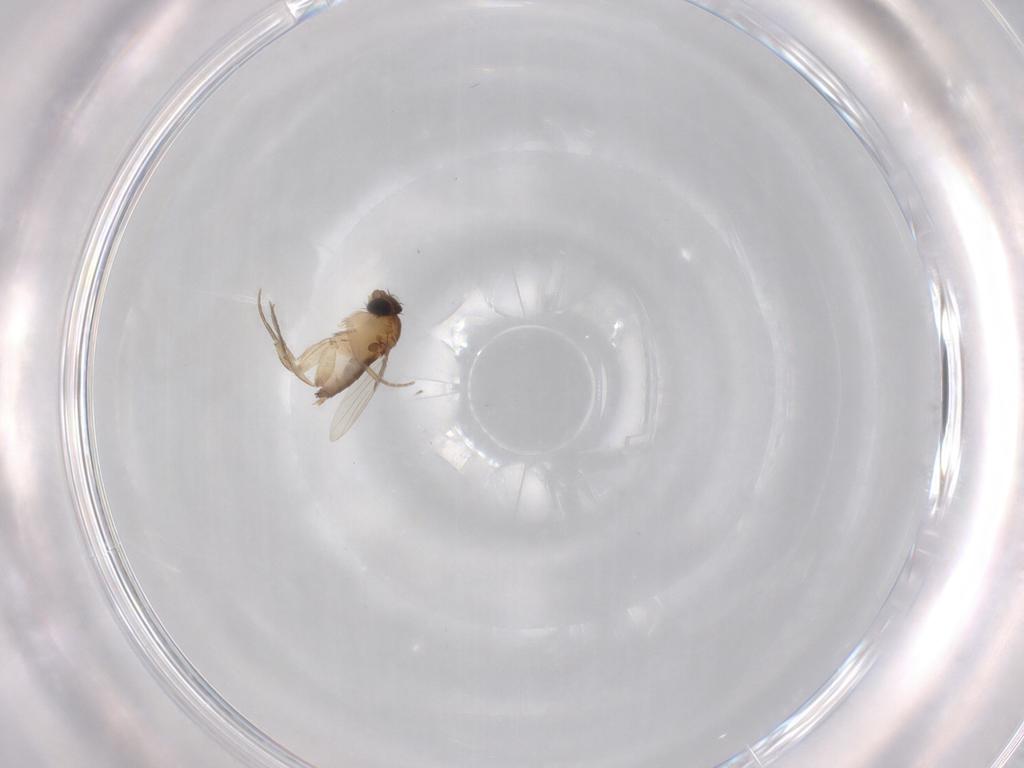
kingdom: Animalia
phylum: Arthropoda
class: Insecta
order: Diptera
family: Phoridae
